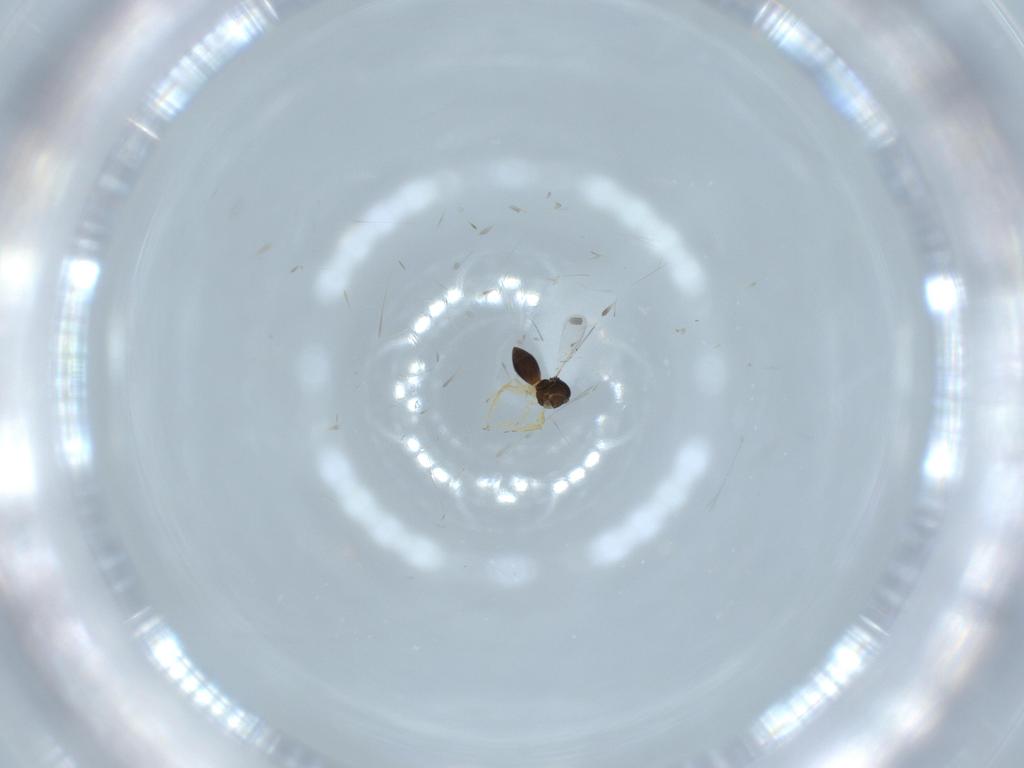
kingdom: Animalia
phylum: Arthropoda
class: Insecta
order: Hymenoptera
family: Scelionidae
